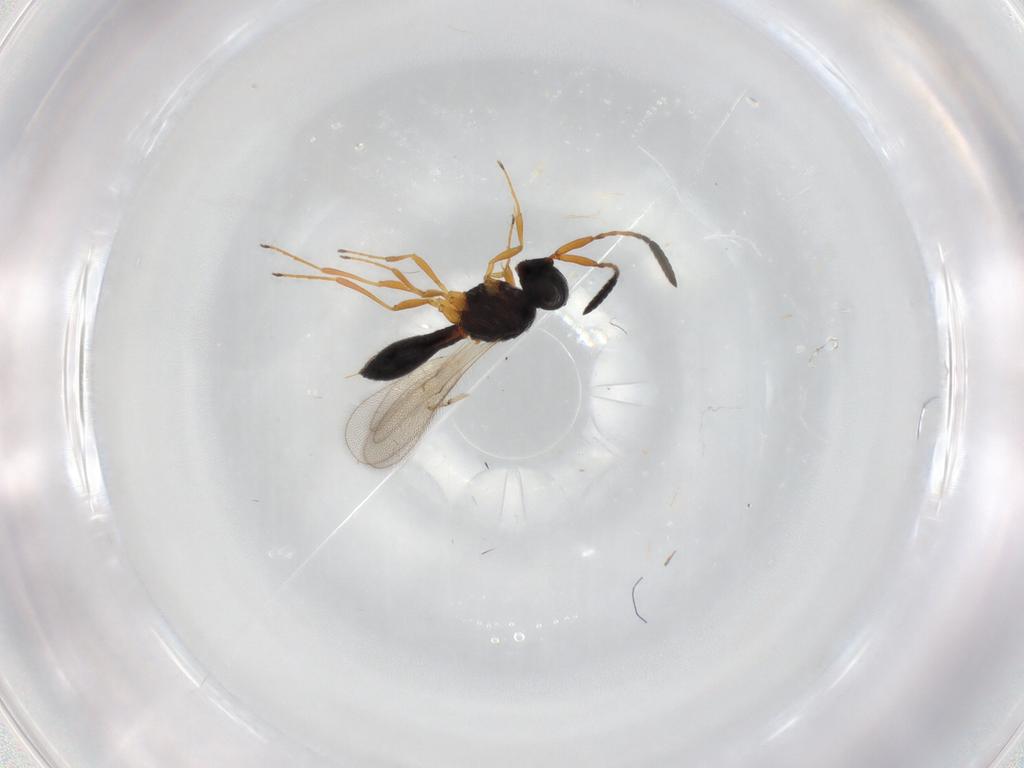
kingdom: Animalia
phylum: Arthropoda
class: Insecta
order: Hymenoptera
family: Scelionidae
